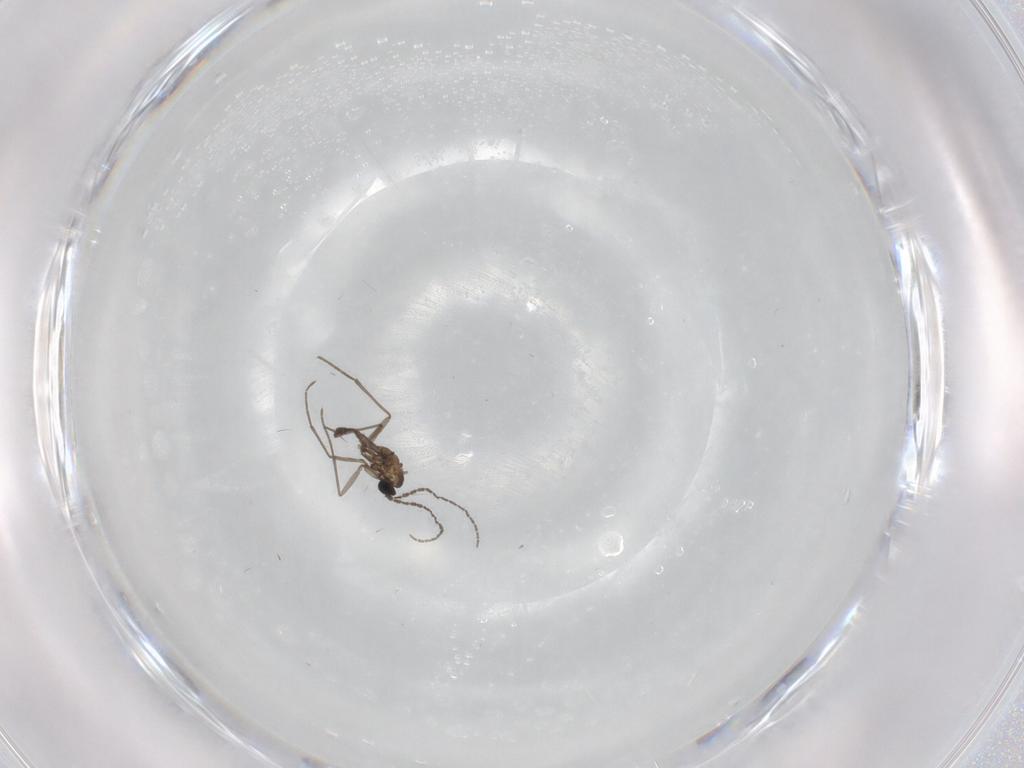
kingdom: Animalia
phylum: Arthropoda
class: Insecta
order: Diptera
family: Sciaridae
